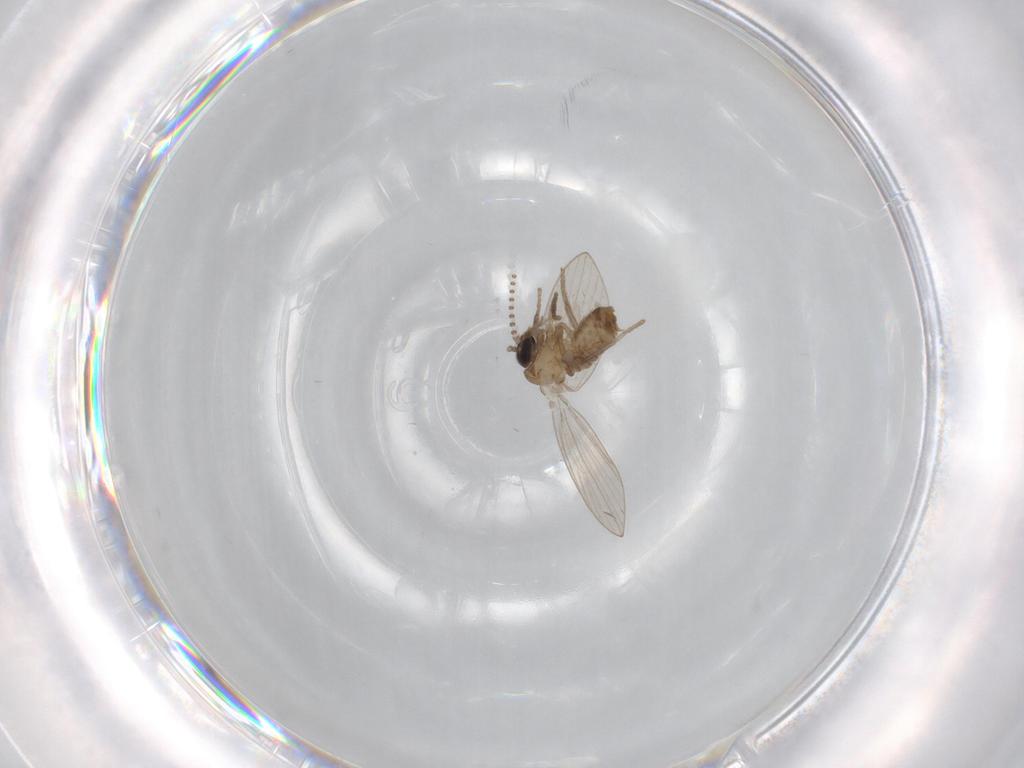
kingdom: Animalia
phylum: Arthropoda
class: Insecta
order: Diptera
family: Psychodidae
